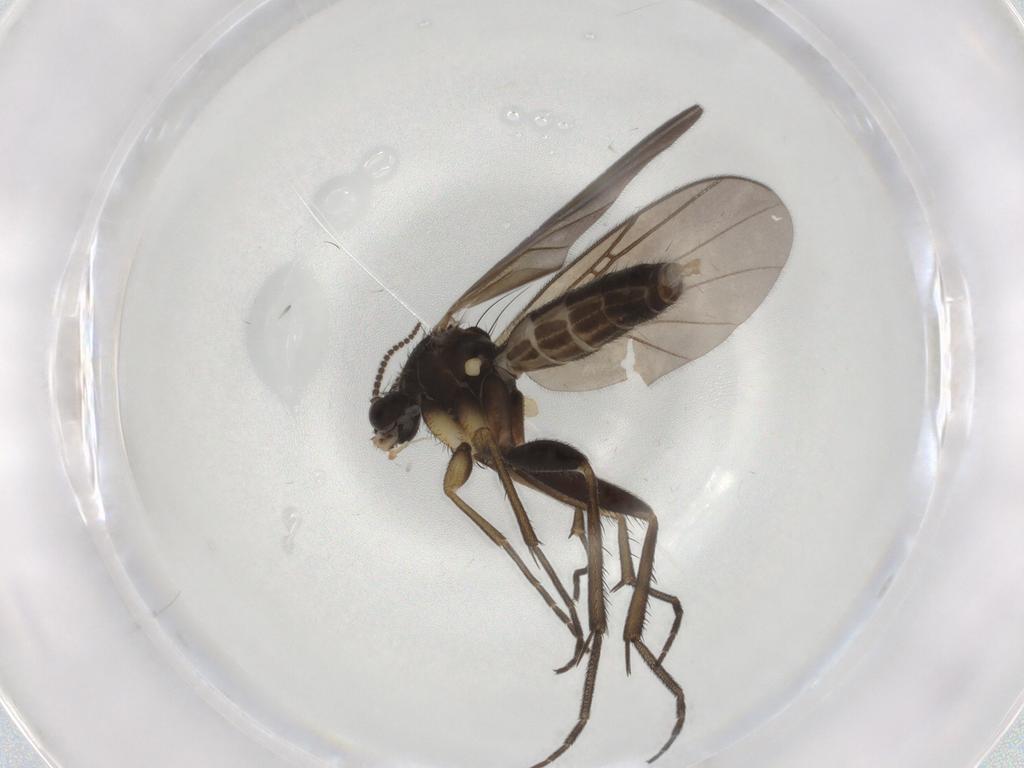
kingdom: Animalia
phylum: Arthropoda
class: Insecta
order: Diptera
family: Mycetophilidae
